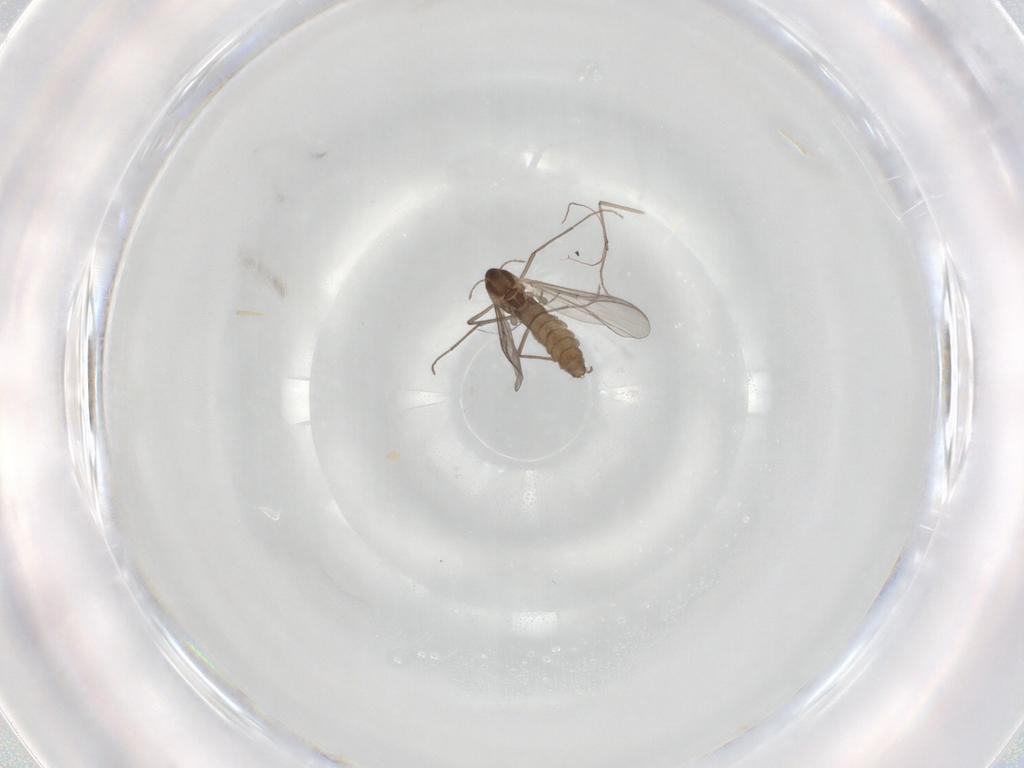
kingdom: Animalia
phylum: Arthropoda
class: Insecta
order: Diptera
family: Chironomidae
